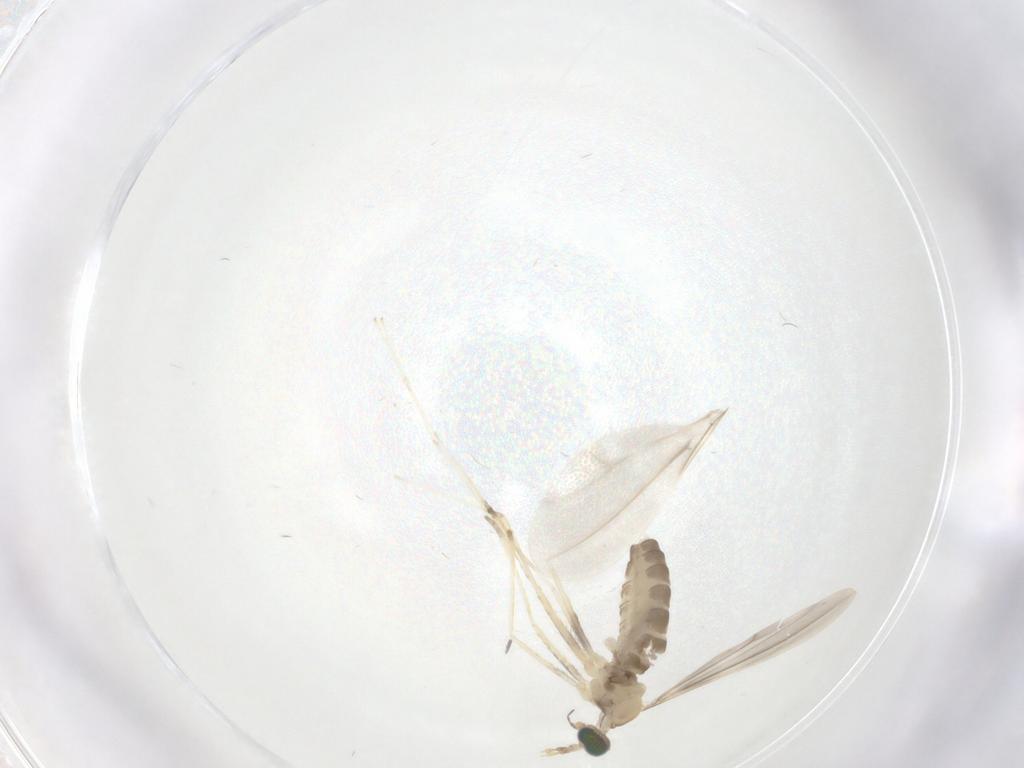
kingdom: Animalia
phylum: Arthropoda
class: Insecta
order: Diptera
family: Cecidomyiidae
